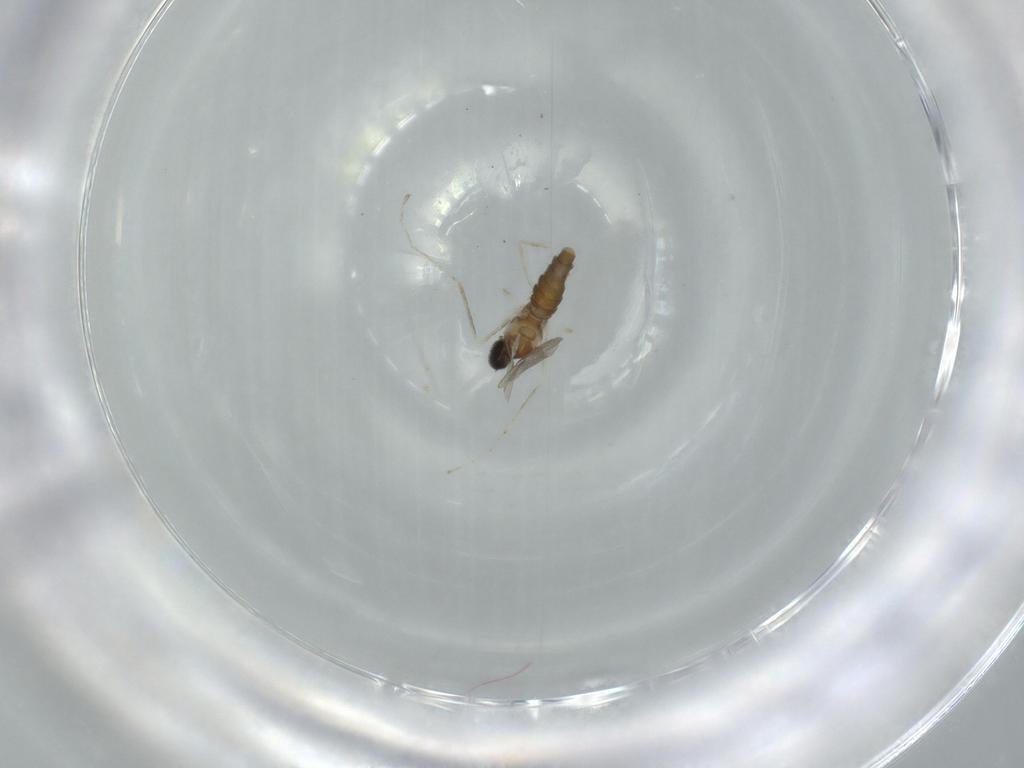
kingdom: Animalia
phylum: Arthropoda
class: Insecta
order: Diptera
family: Cecidomyiidae
